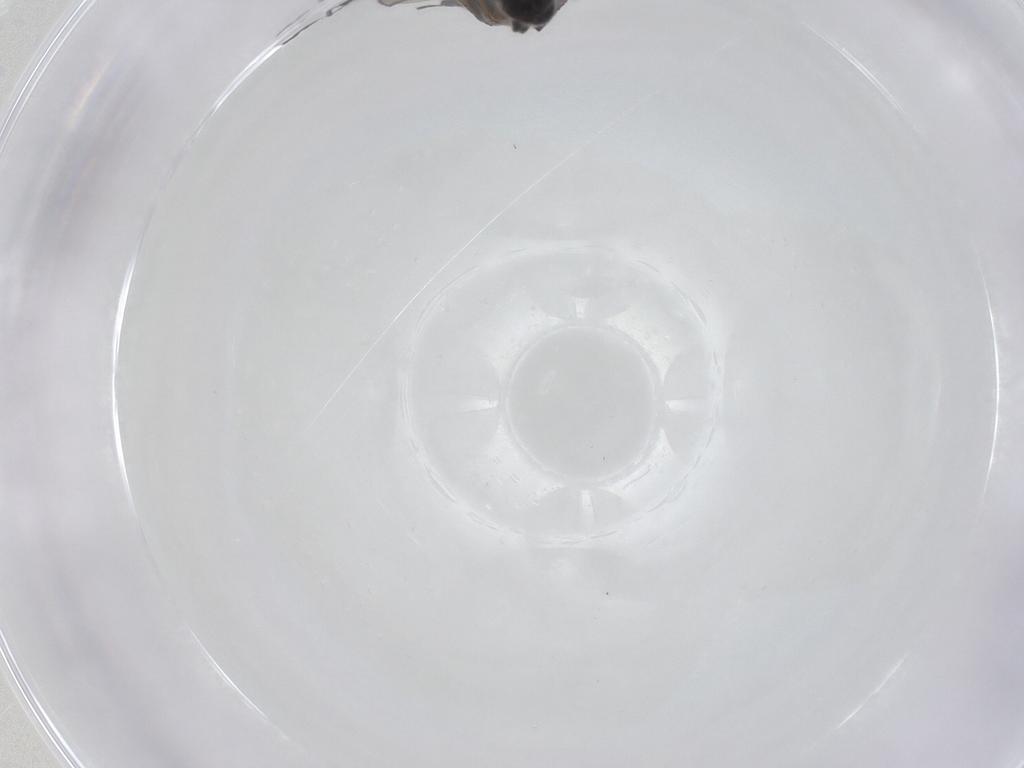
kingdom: Animalia
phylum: Arthropoda
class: Insecta
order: Diptera
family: Sciaridae
